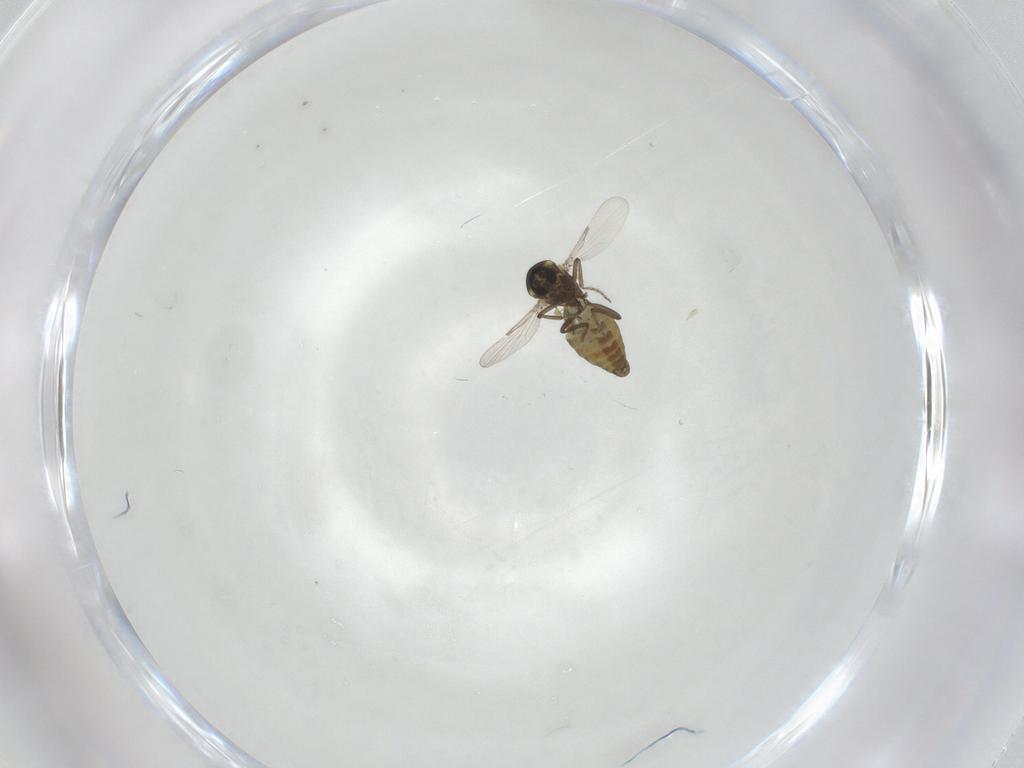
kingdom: Animalia
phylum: Arthropoda
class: Insecta
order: Diptera
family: Ceratopogonidae
